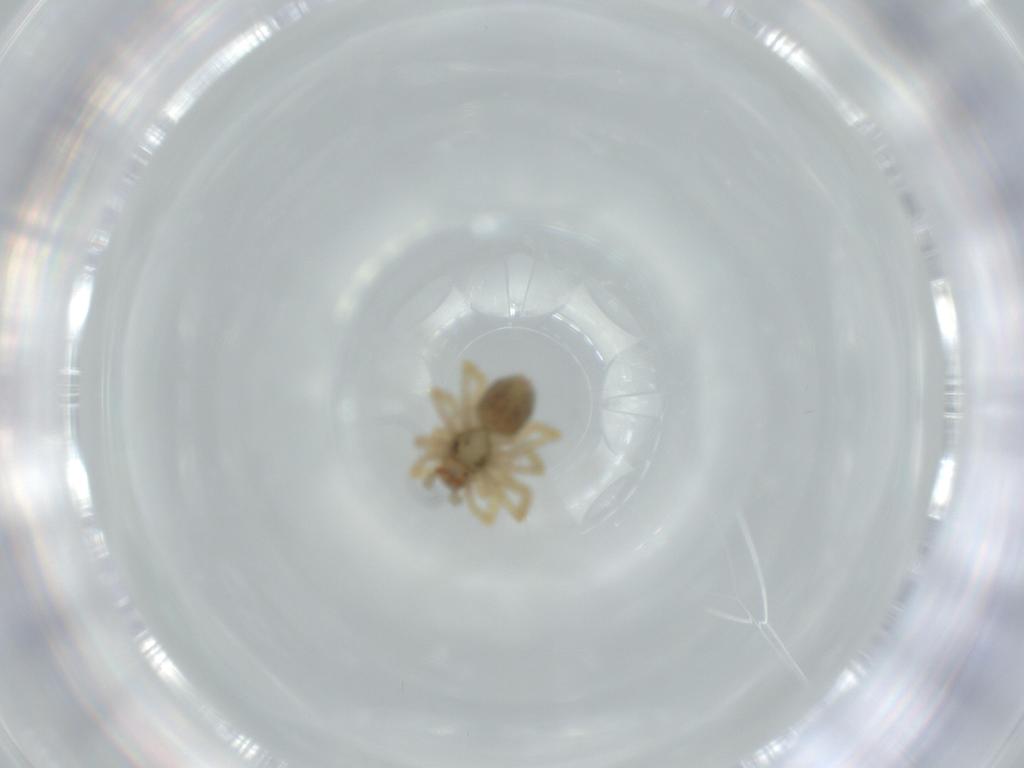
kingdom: Animalia
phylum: Arthropoda
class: Arachnida
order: Araneae
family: Linyphiidae
